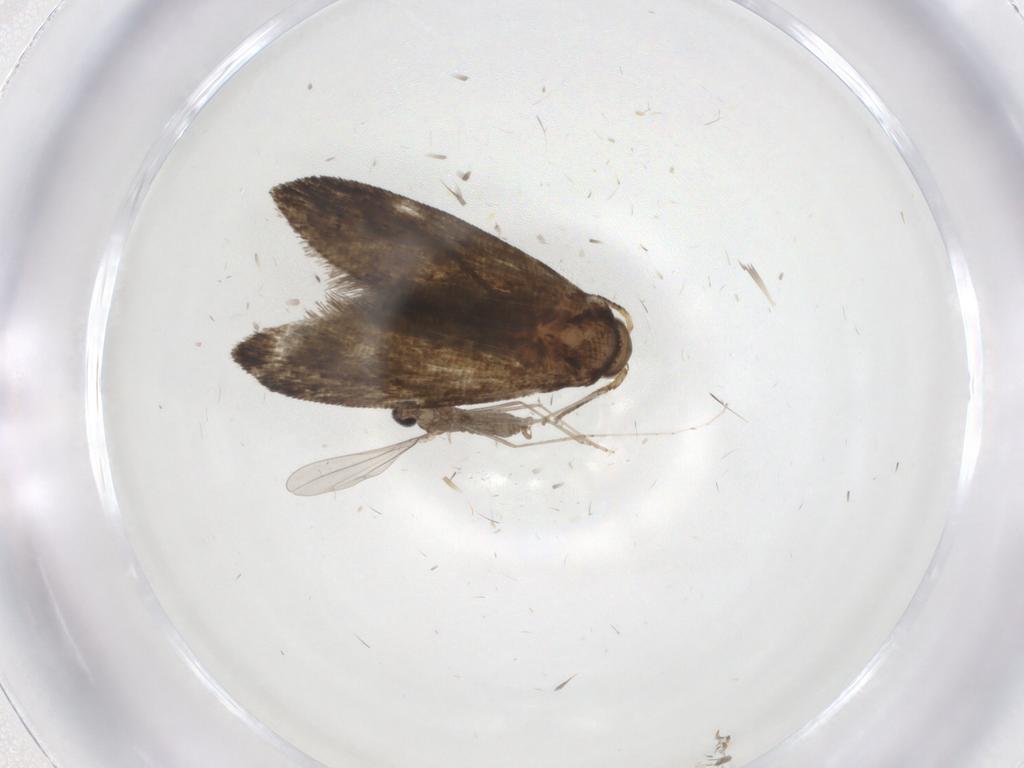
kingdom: Animalia
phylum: Arthropoda
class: Insecta
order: Lepidoptera
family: Crambidae
